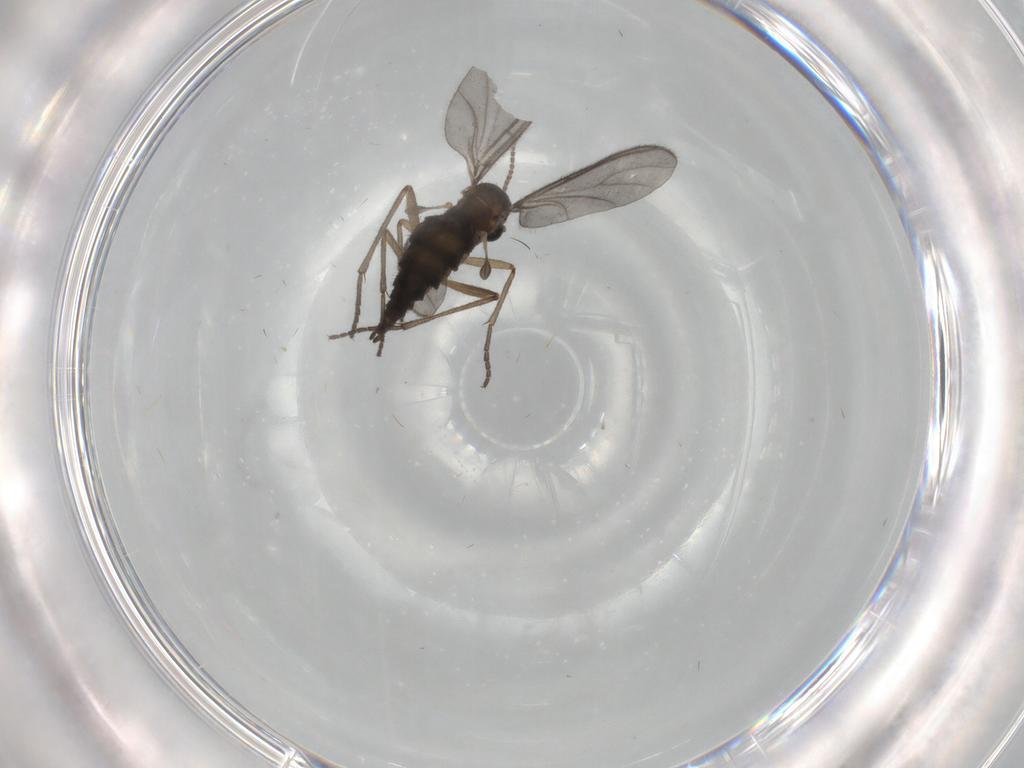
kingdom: Animalia
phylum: Arthropoda
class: Insecta
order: Diptera
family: Sciaridae
